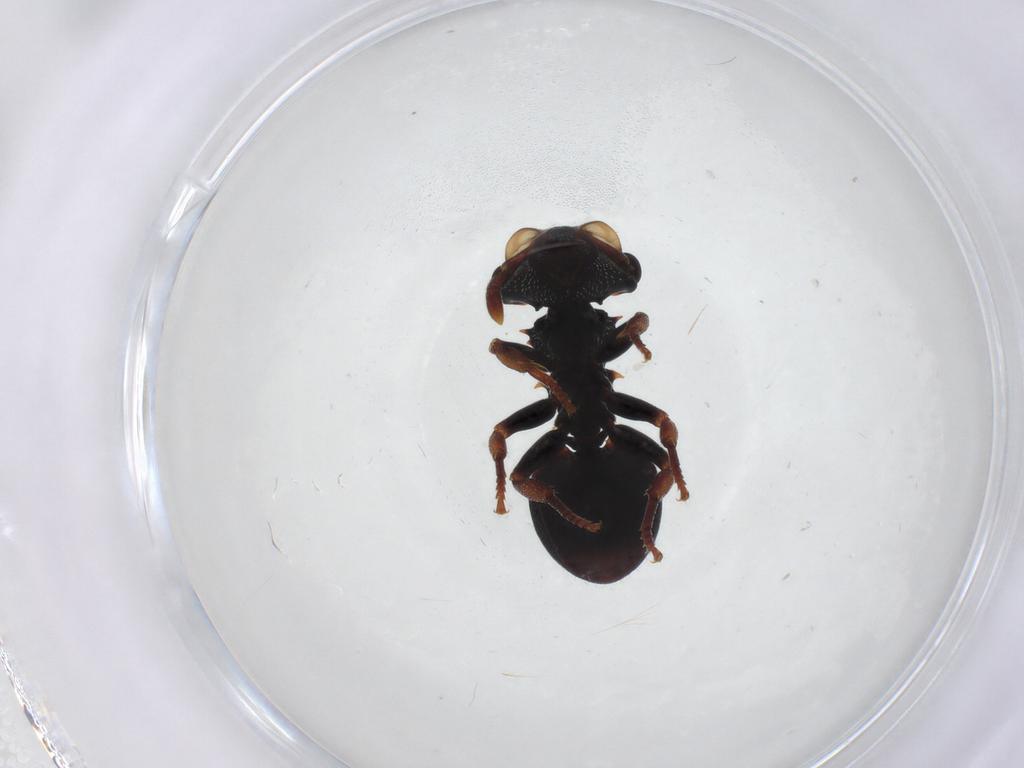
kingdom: Animalia
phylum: Arthropoda
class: Insecta
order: Hymenoptera
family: Formicidae
